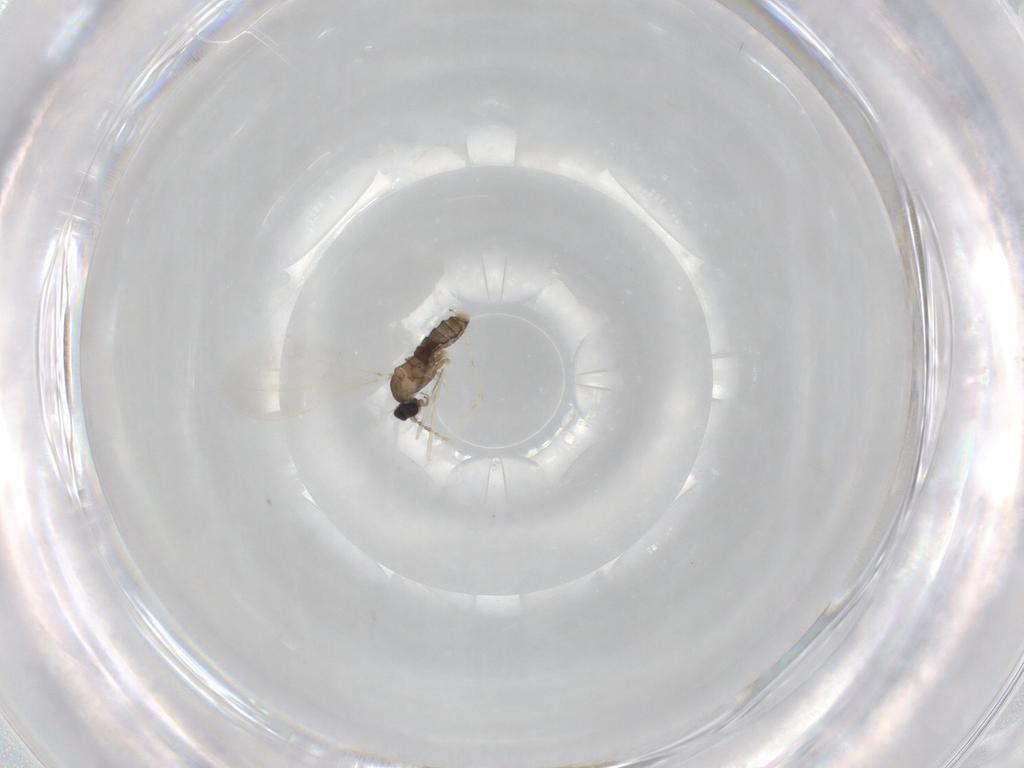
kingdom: Animalia
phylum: Arthropoda
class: Insecta
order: Diptera
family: Cecidomyiidae
